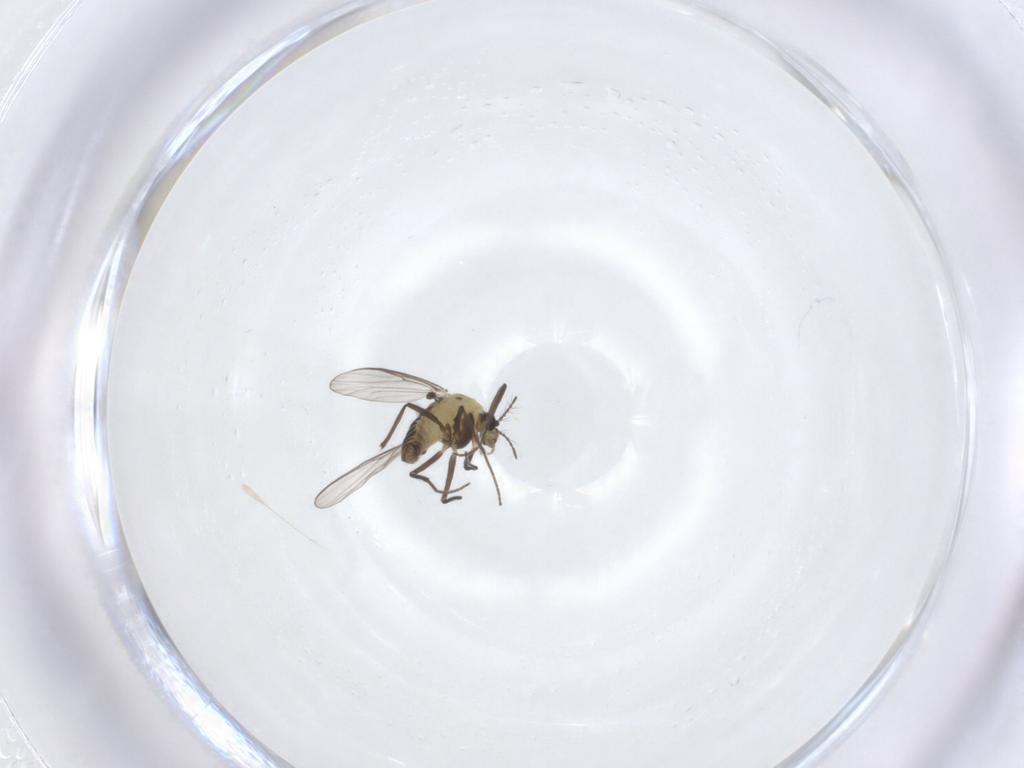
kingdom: Animalia
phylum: Arthropoda
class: Insecta
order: Diptera
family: Chironomidae
